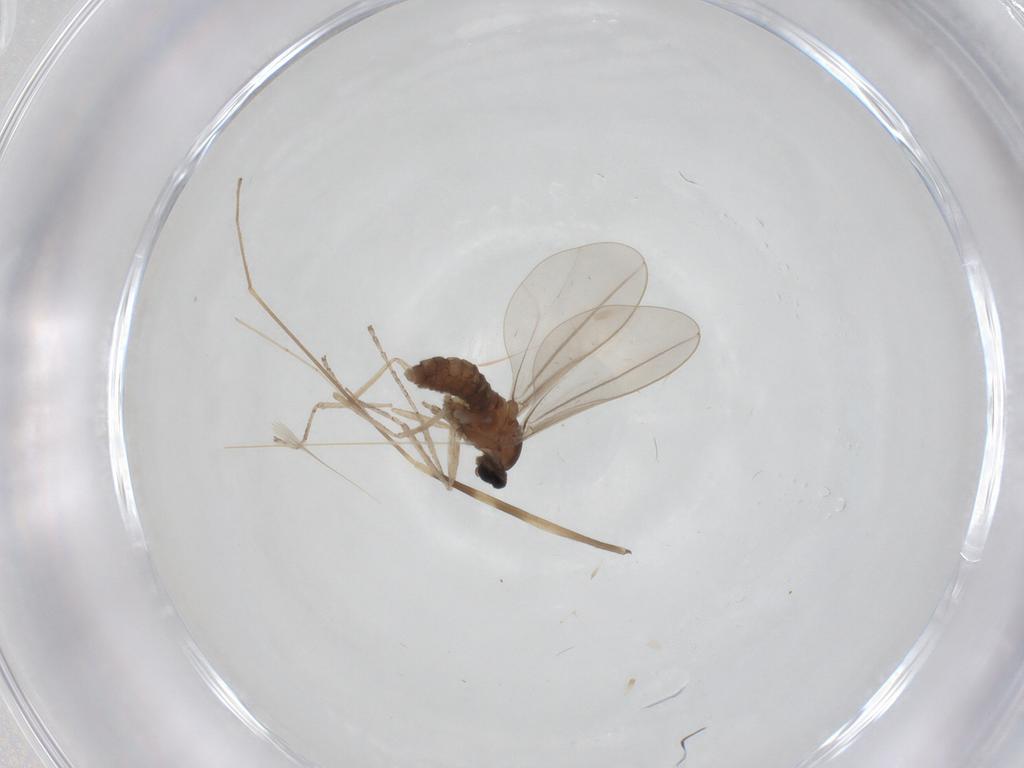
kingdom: Animalia
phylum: Arthropoda
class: Insecta
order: Diptera
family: Cecidomyiidae
